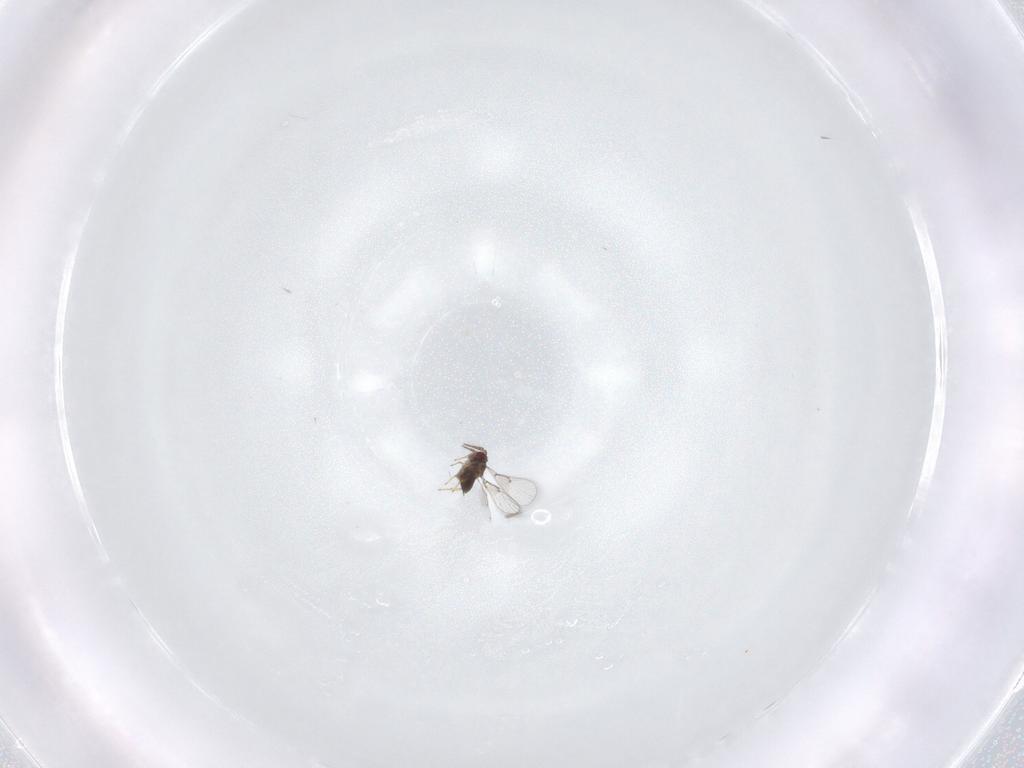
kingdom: Animalia
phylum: Arthropoda
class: Insecta
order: Hymenoptera
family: Trichogrammatidae
